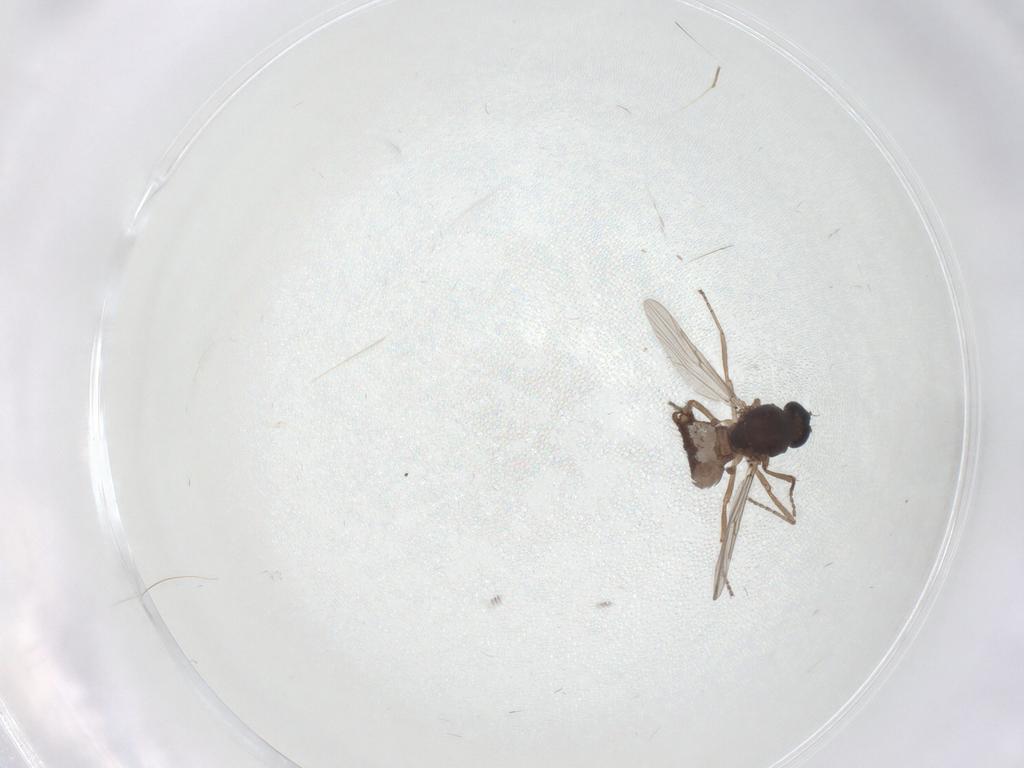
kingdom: Animalia
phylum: Arthropoda
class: Insecta
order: Diptera
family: Ceratopogonidae
